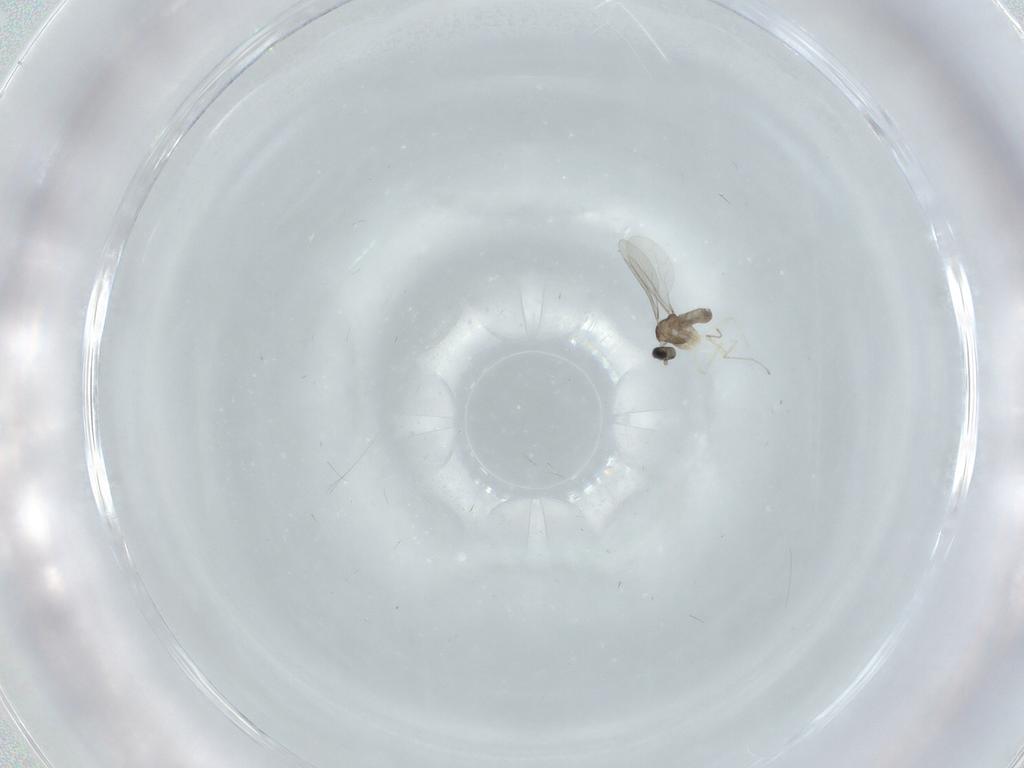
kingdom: Animalia
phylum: Arthropoda
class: Insecta
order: Diptera
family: Cecidomyiidae
